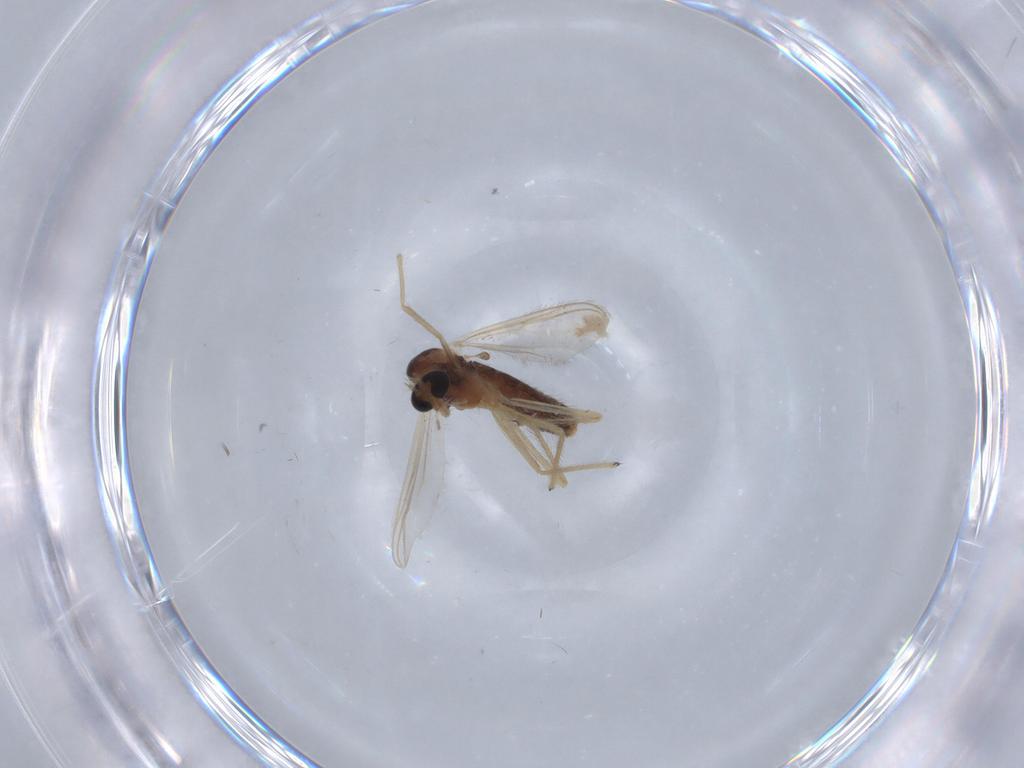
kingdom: Animalia
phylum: Arthropoda
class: Insecta
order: Diptera
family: Chironomidae
